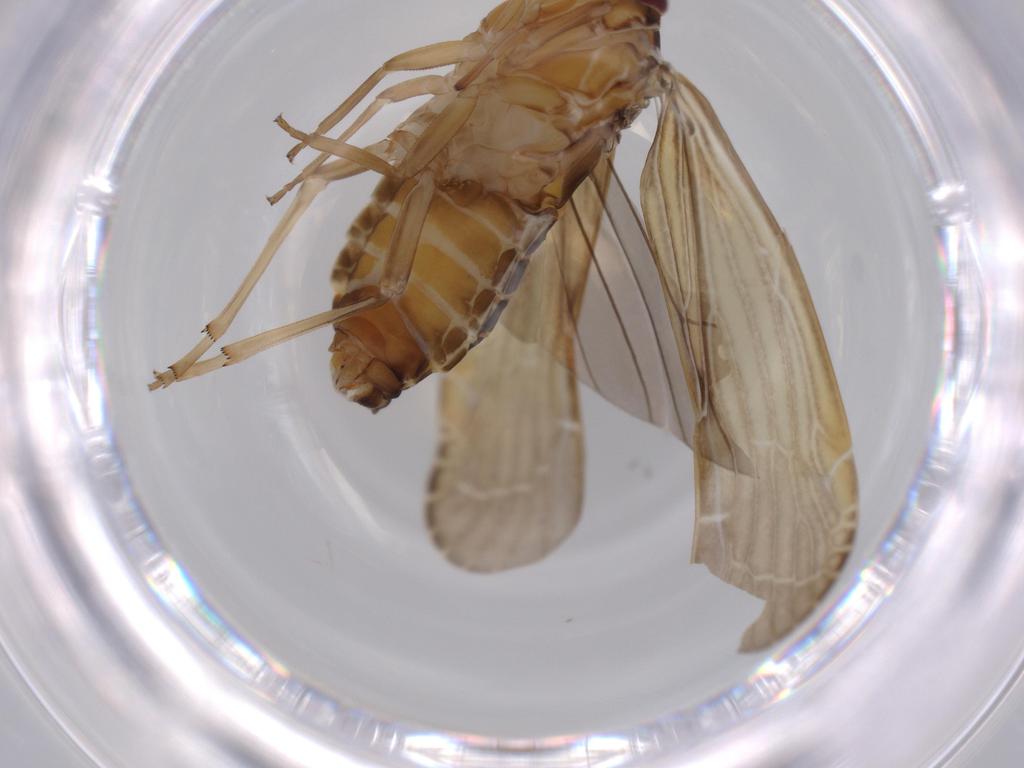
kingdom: Animalia
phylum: Arthropoda
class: Insecta
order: Hemiptera
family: Achilidae
